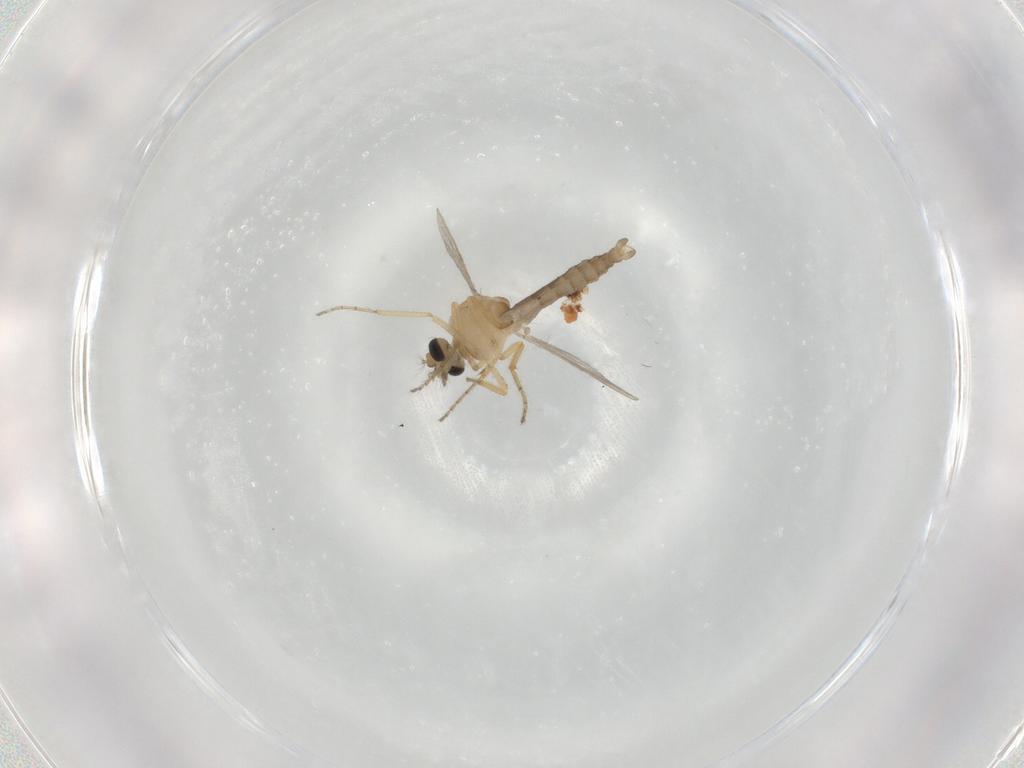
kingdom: Animalia
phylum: Arthropoda
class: Insecta
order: Diptera
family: Ceratopogonidae
